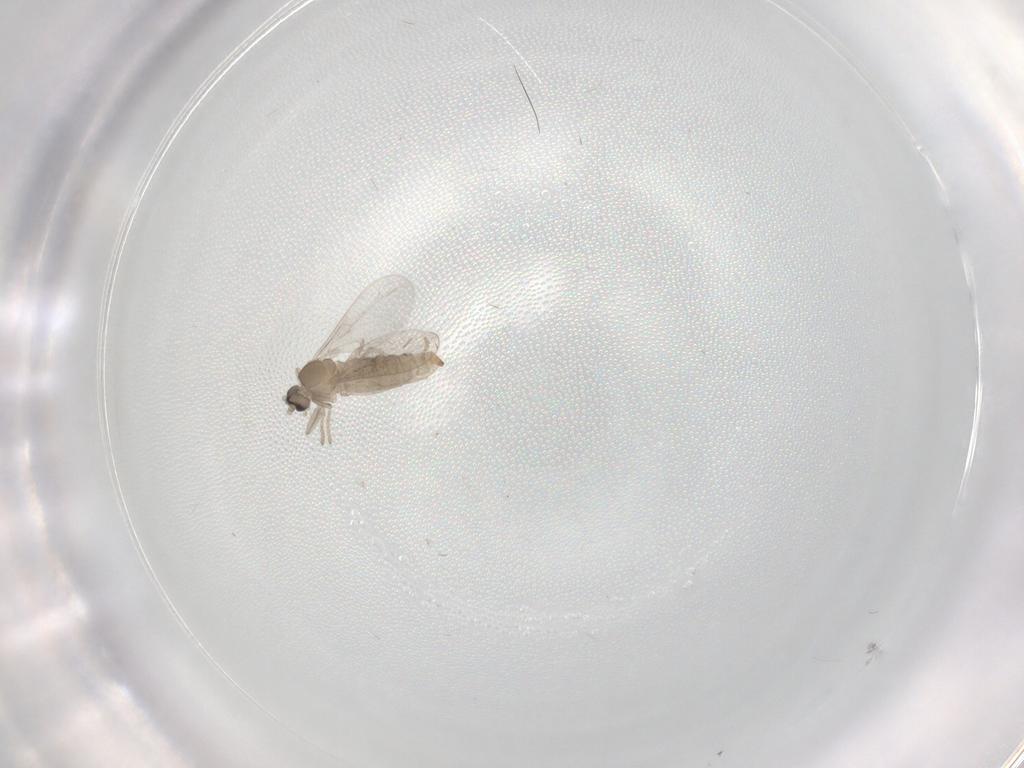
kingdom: Animalia
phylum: Arthropoda
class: Insecta
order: Diptera
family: Cecidomyiidae
